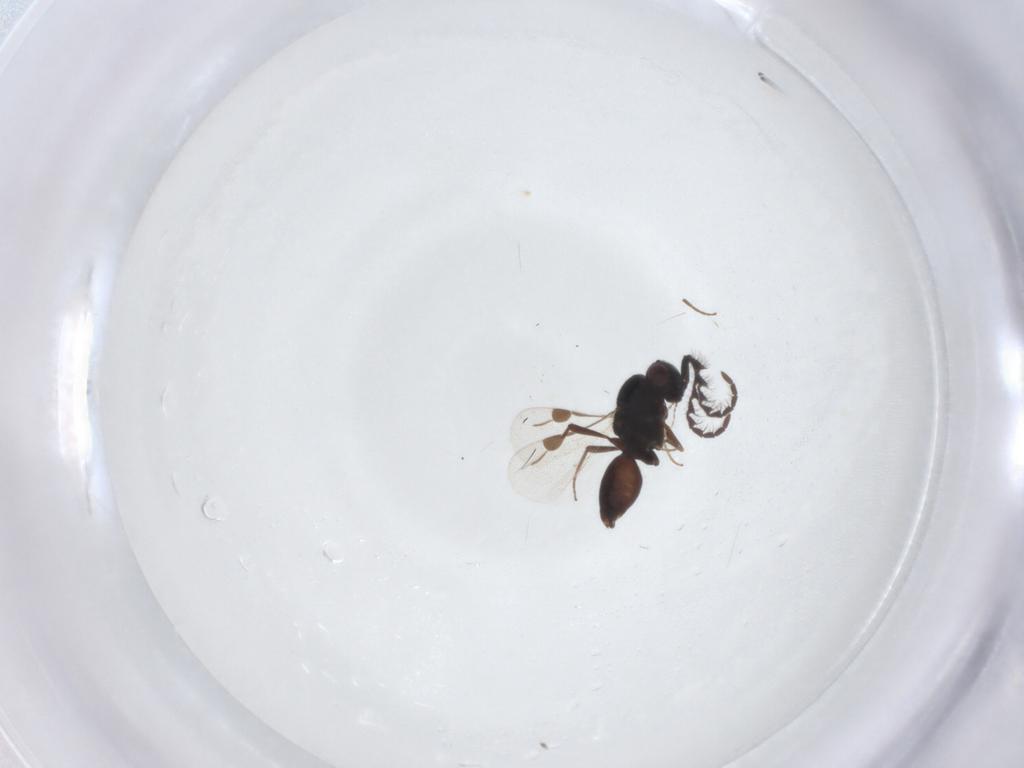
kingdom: Animalia
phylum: Arthropoda
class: Insecta
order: Hymenoptera
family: Megaspilidae
